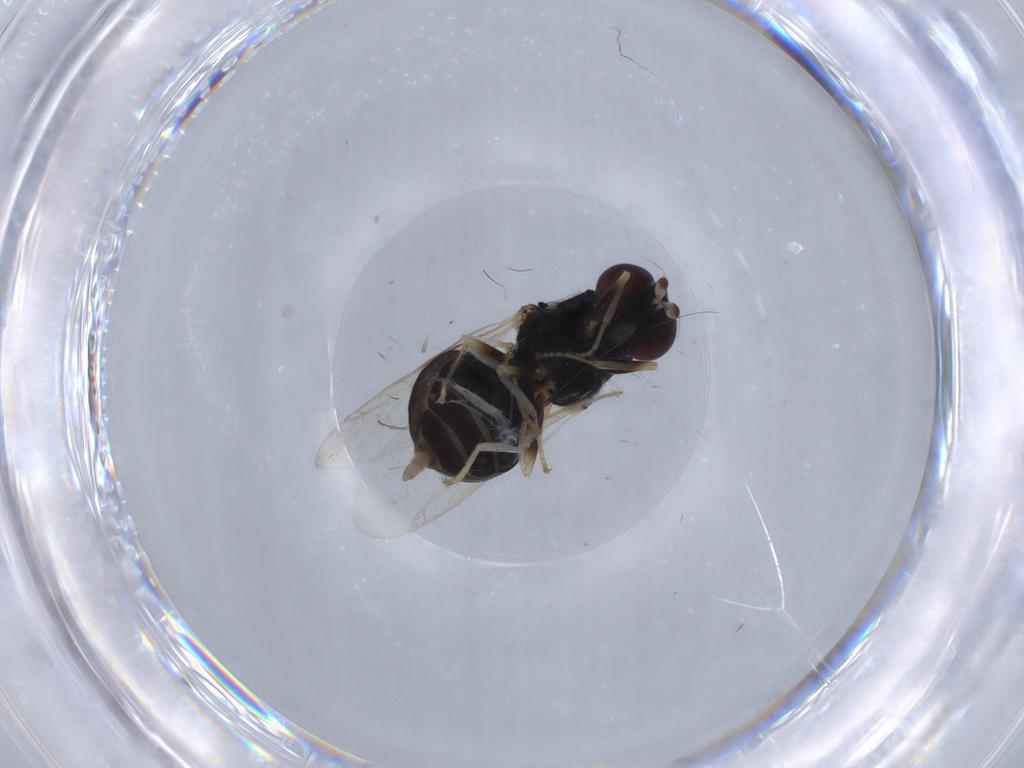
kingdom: Animalia
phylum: Arthropoda
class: Insecta
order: Diptera
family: Stratiomyidae
